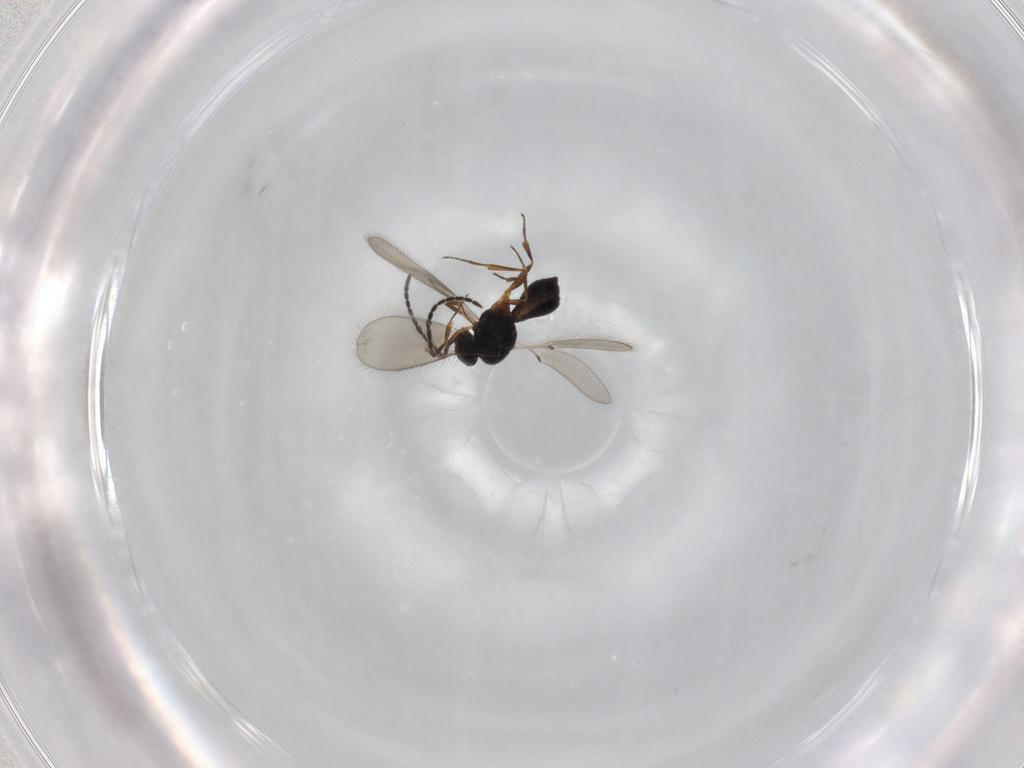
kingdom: Animalia
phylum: Arthropoda
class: Insecta
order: Hymenoptera
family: Scelionidae
